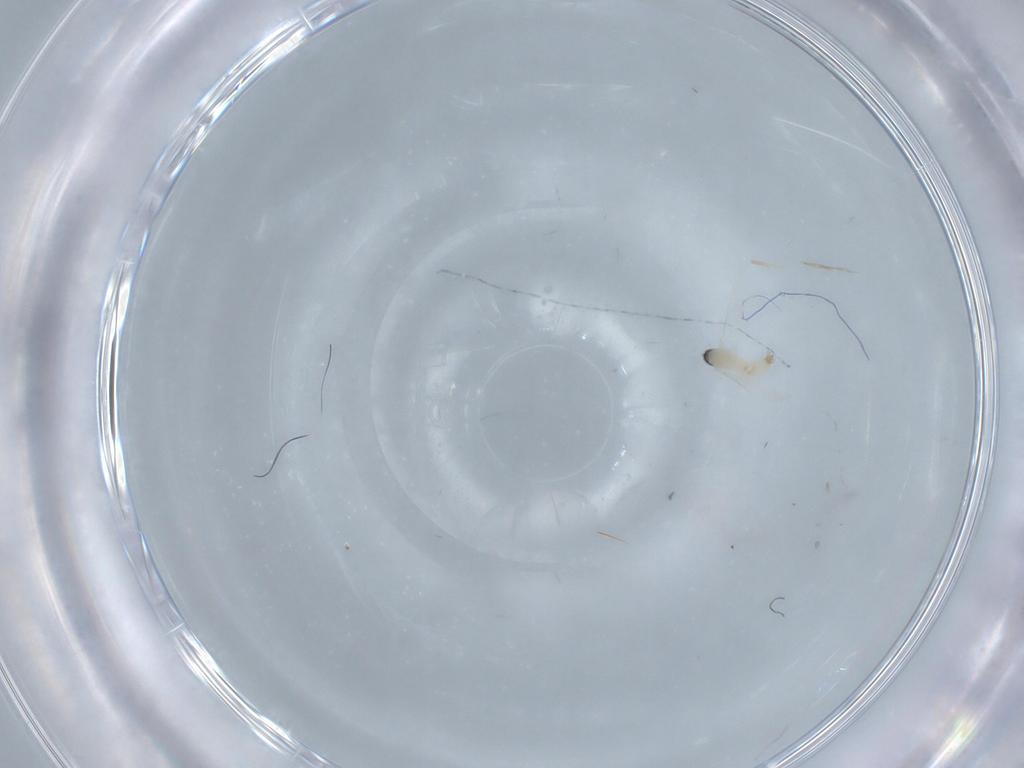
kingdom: Animalia
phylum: Arthropoda
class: Insecta
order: Diptera
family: Cecidomyiidae
